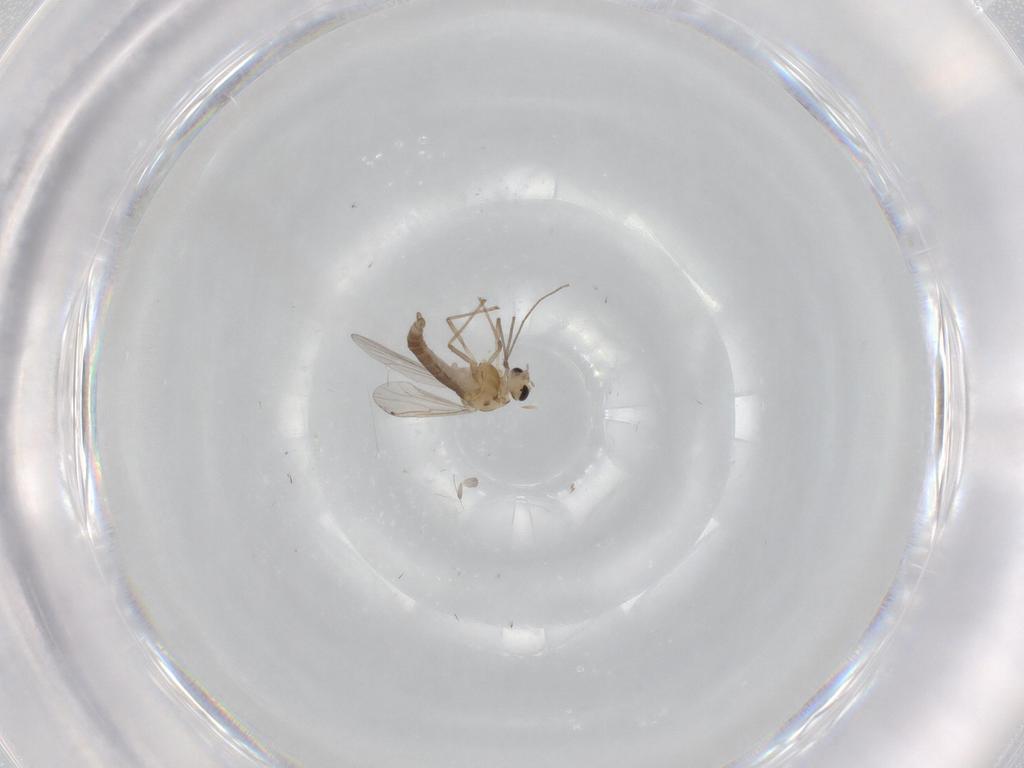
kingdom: Animalia
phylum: Arthropoda
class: Insecta
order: Diptera
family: Chironomidae
